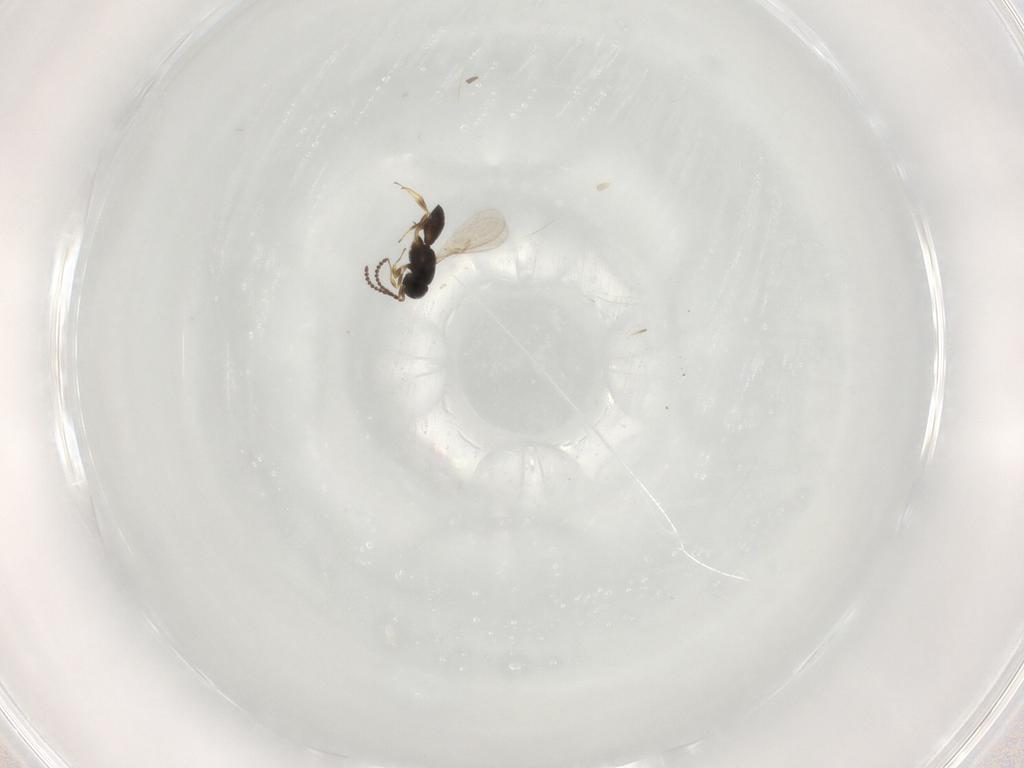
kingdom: Animalia
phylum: Arthropoda
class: Insecta
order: Hymenoptera
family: Scelionidae
